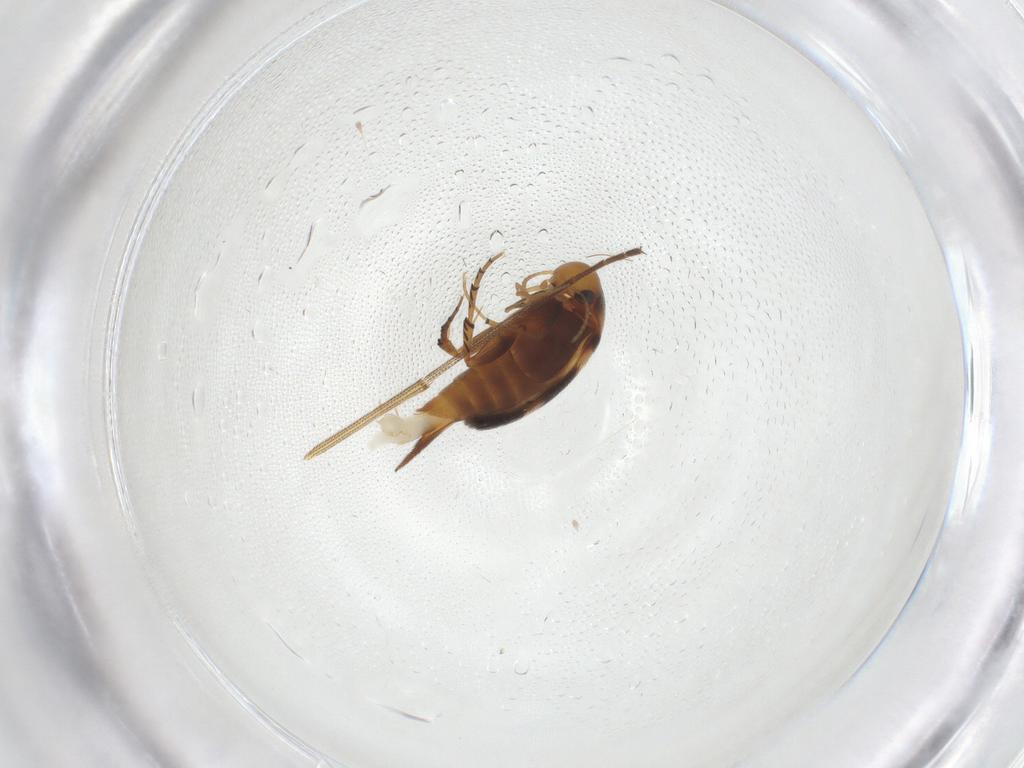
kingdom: Animalia
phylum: Arthropoda
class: Insecta
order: Coleoptera
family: Mordellidae
